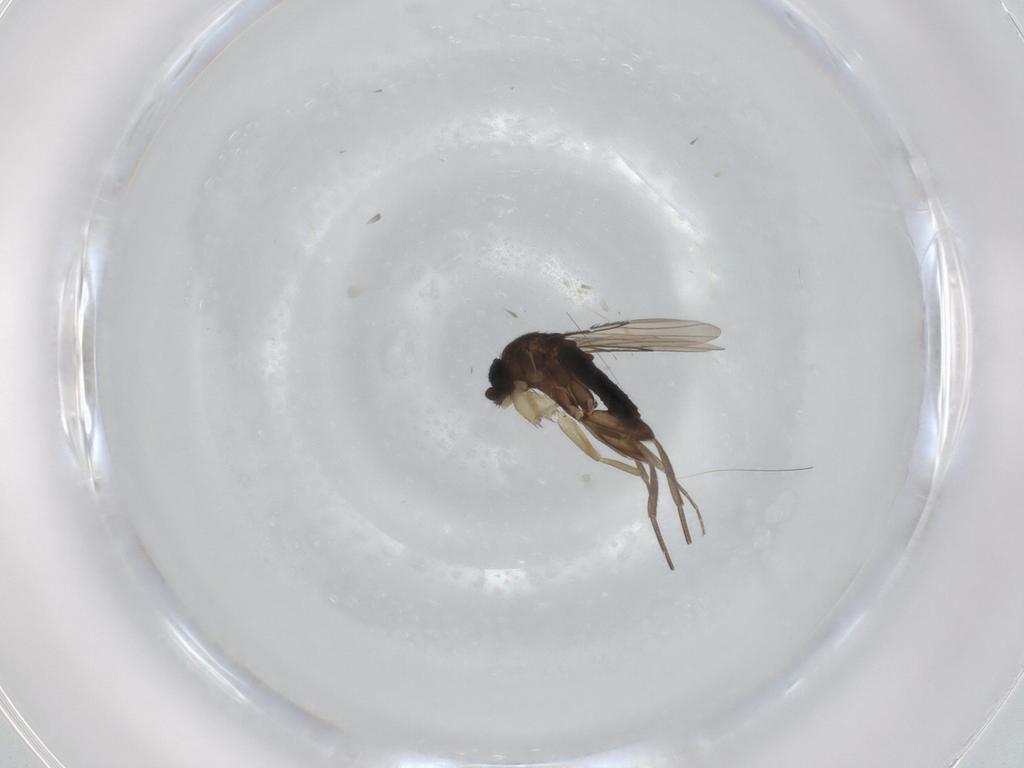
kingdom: Animalia
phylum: Arthropoda
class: Insecta
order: Diptera
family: Phoridae
